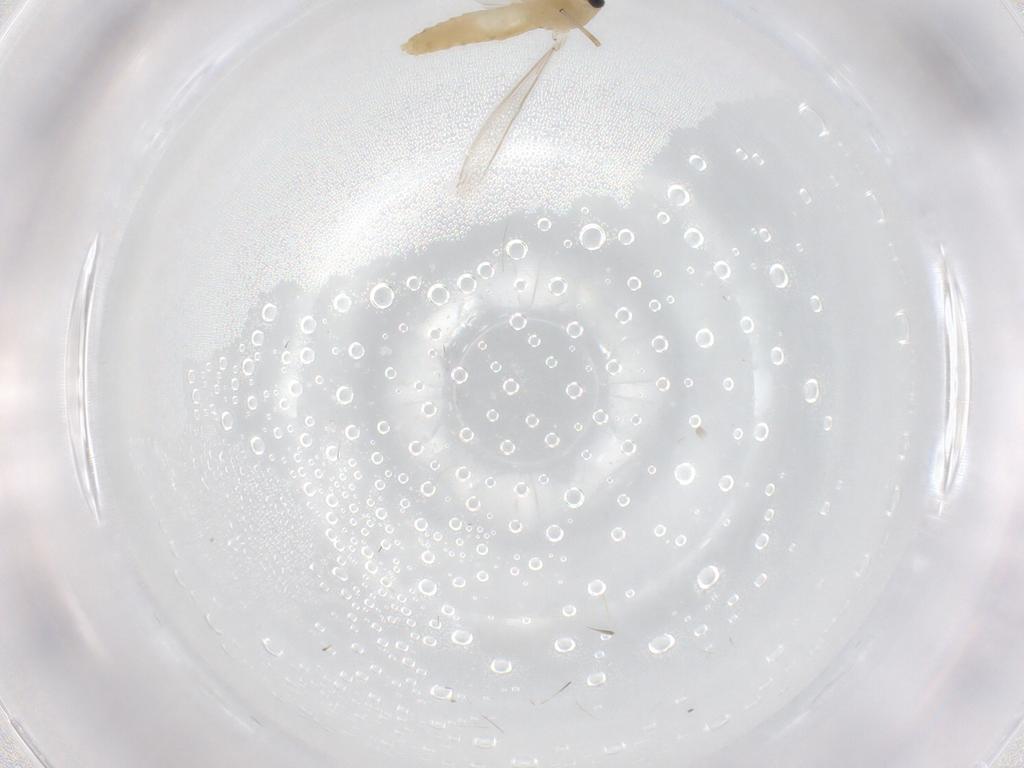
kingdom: Animalia
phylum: Arthropoda
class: Insecta
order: Diptera
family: Chironomidae
